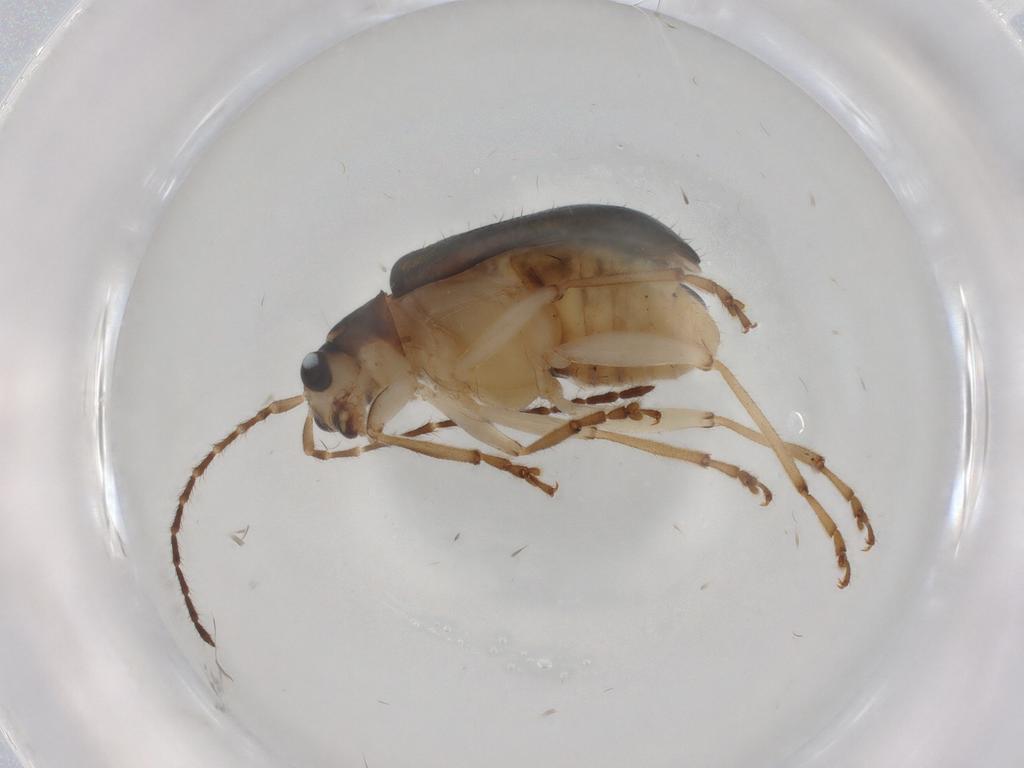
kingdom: Animalia
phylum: Arthropoda
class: Insecta
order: Coleoptera
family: Chrysomelidae
